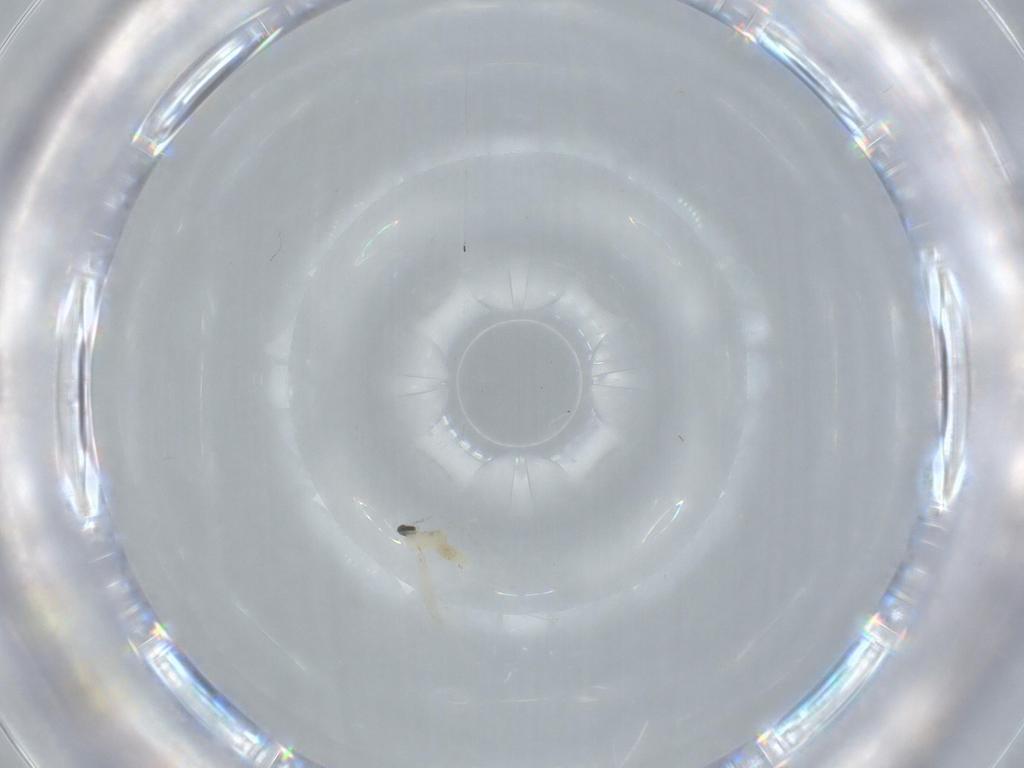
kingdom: Animalia
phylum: Arthropoda
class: Insecta
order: Diptera
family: Cecidomyiidae
